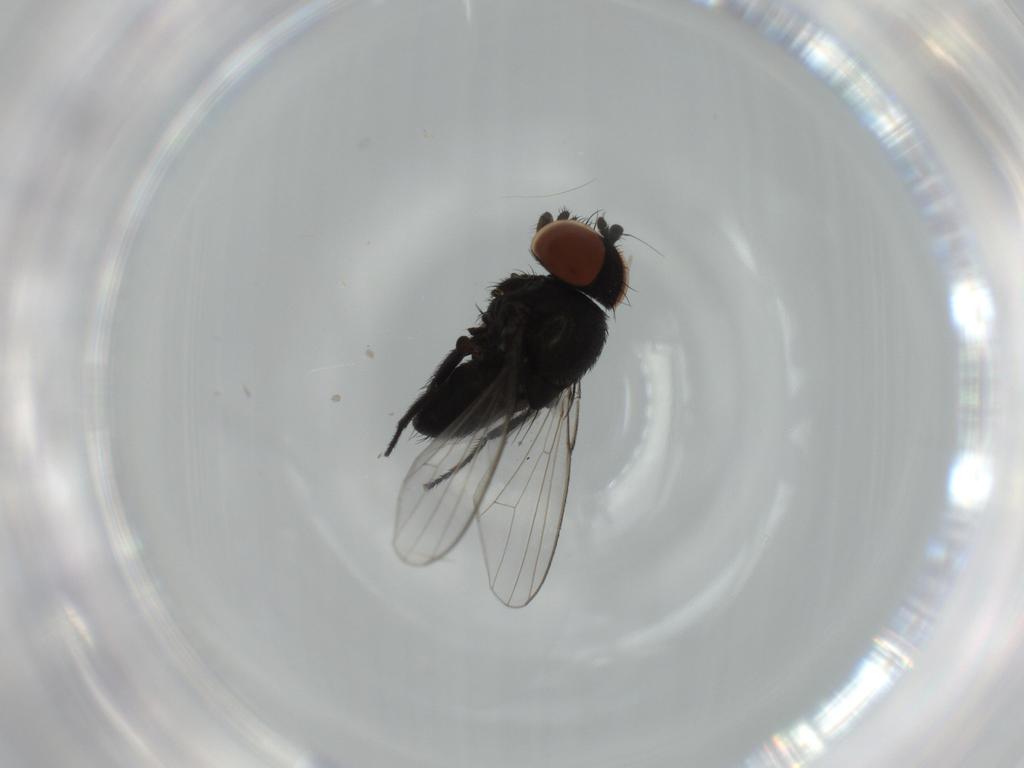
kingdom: Animalia
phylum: Arthropoda
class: Insecta
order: Diptera
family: Milichiidae
